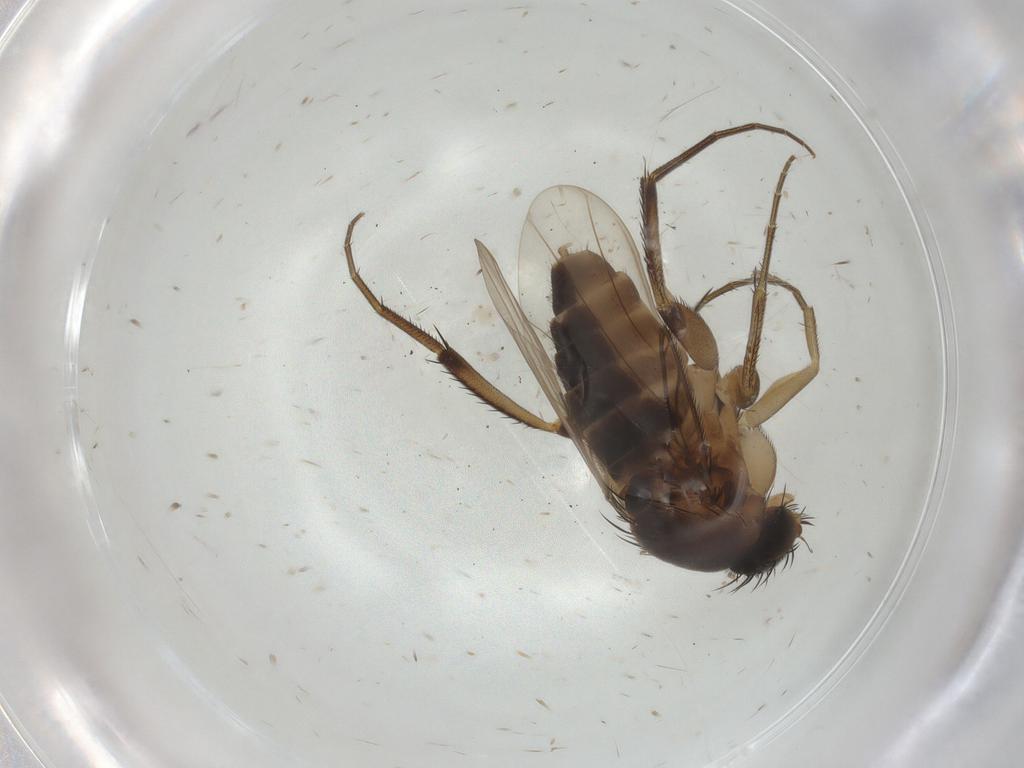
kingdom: Animalia
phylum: Arthropoda
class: Insecta
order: Diptera
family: Phoridae
